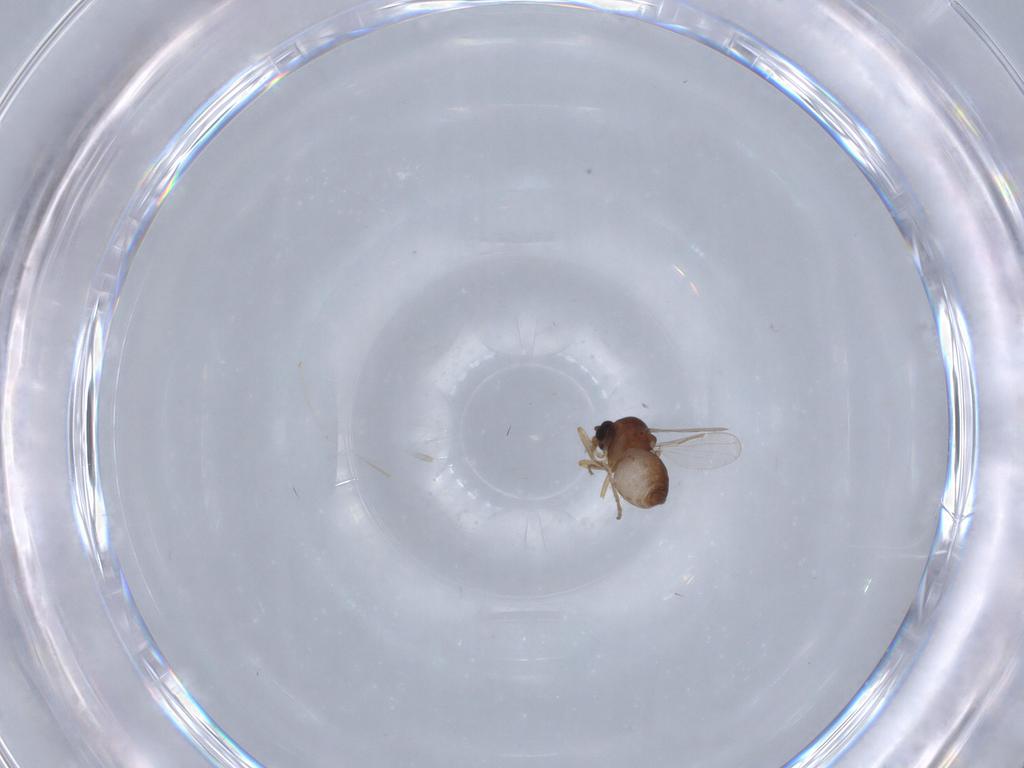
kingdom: Animalia
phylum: Arthropoda
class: Insecta
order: Diptera
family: Ceratopogonidae
